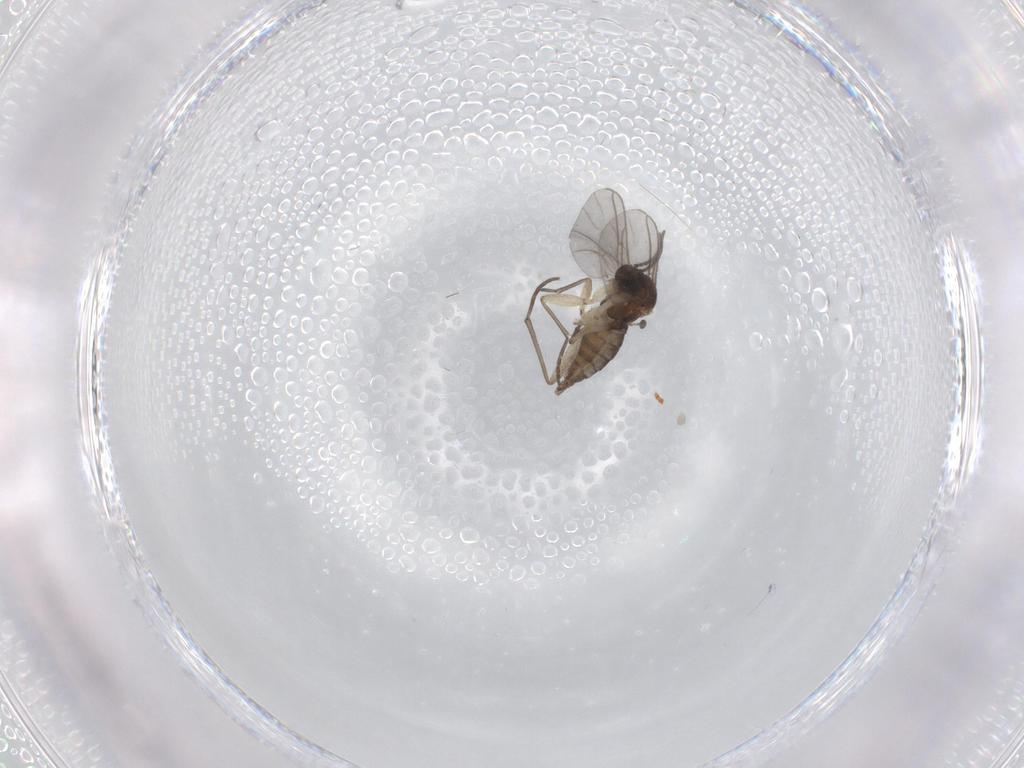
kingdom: Animalia
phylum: Arthropoda
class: Insecta
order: Diptera
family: Sciaridae
